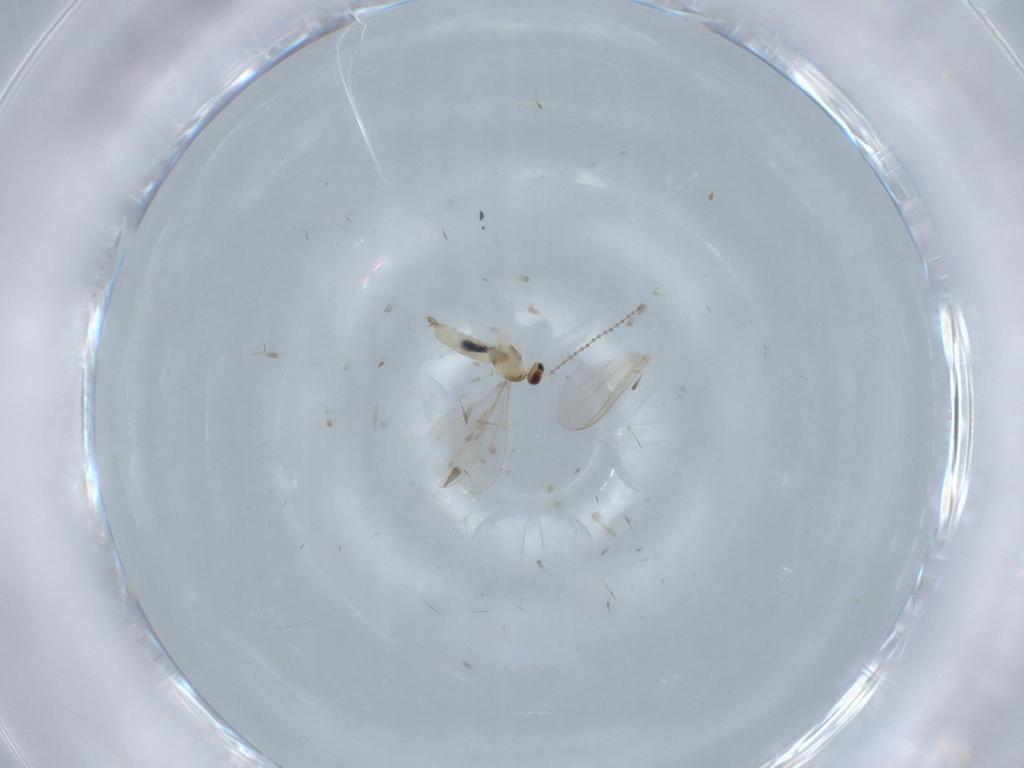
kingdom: Animalia
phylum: Arthropoda
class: Insecta
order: Diptera
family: Cecidomyiidae
